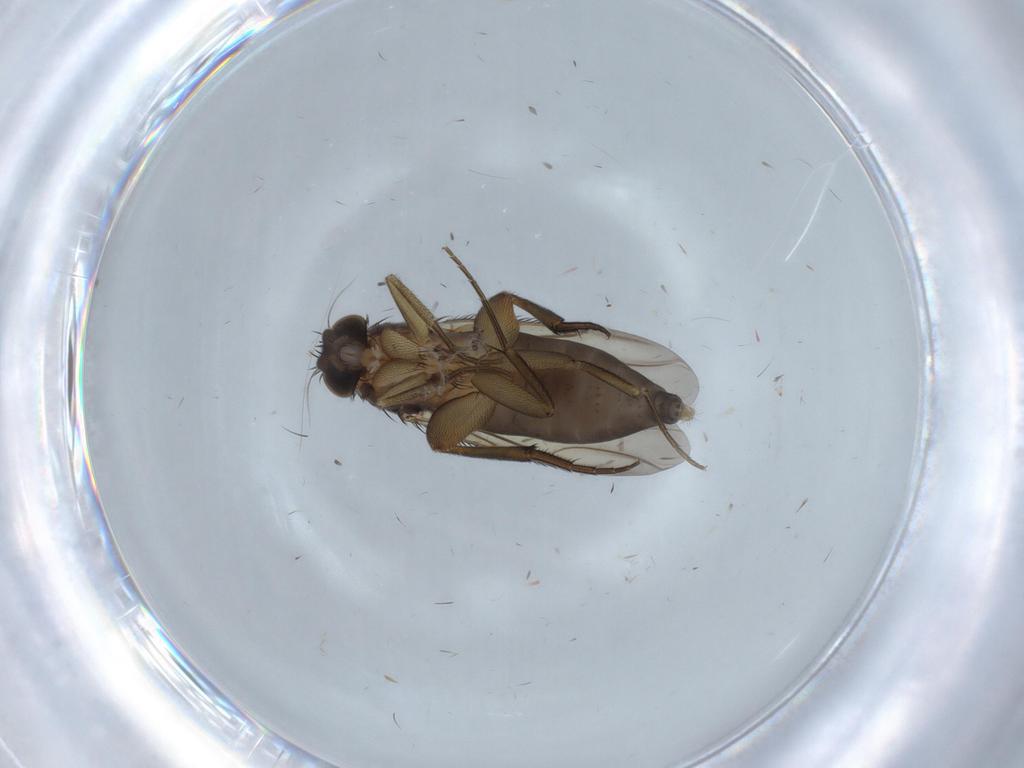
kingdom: Animalia
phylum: Arthropoda
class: Insecta
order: Diptera
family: Phoridae
